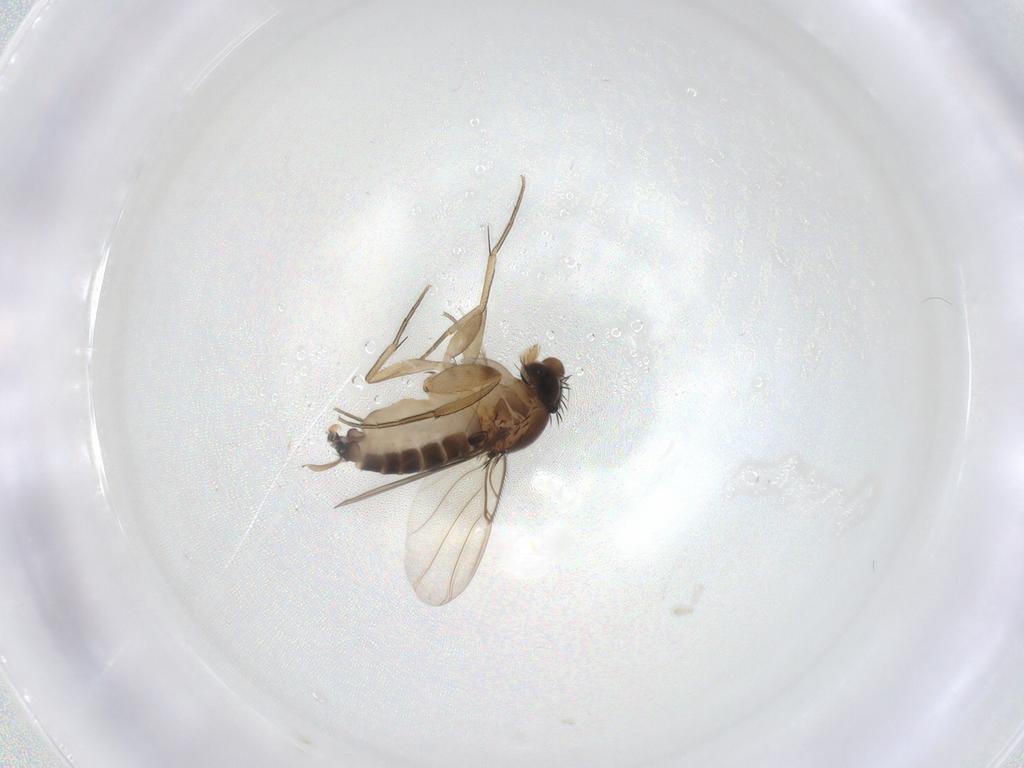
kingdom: Animalia
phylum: Arthropoda
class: Insecta
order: Diptera
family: Phoridae
